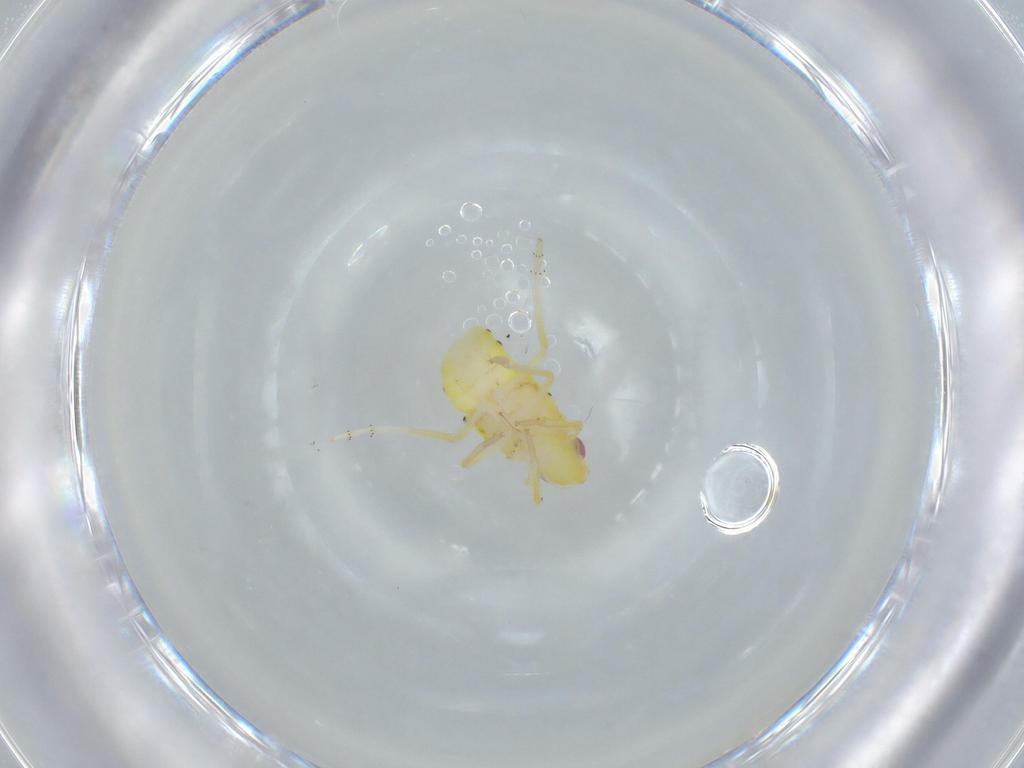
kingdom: Animalia
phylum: Arthropoda
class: Insecta
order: Hemiptera
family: Tropiduchidae
